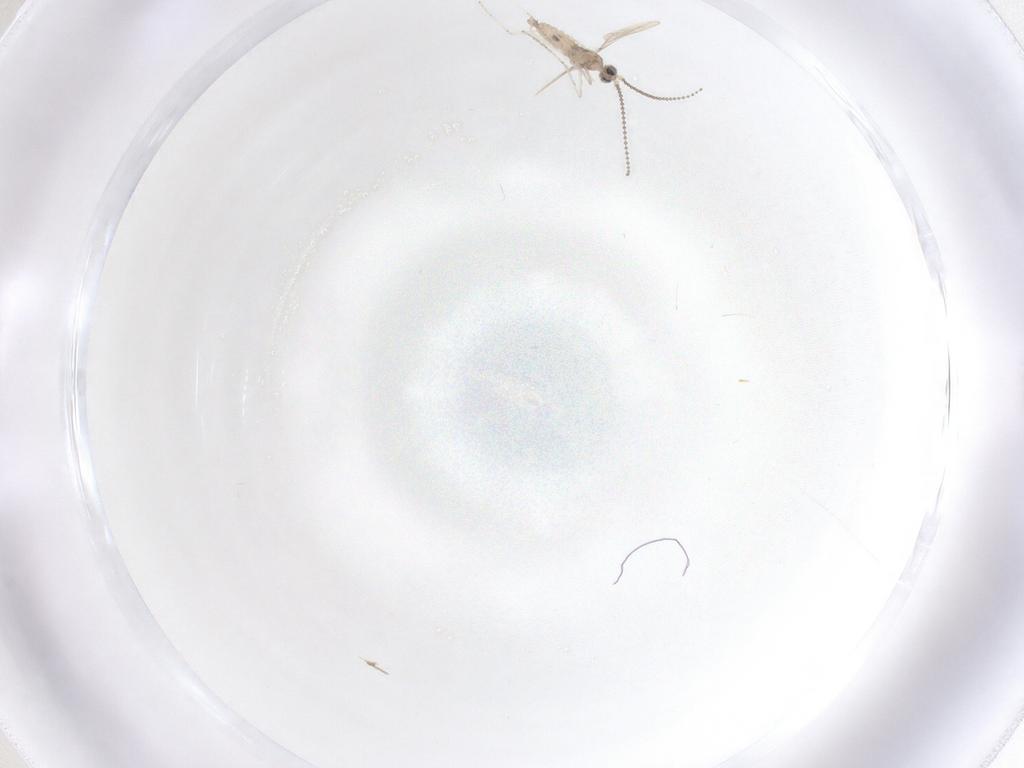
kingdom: Animalia
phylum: Arthropoda
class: Insecta
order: Diptera
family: Cecidomyiidae
